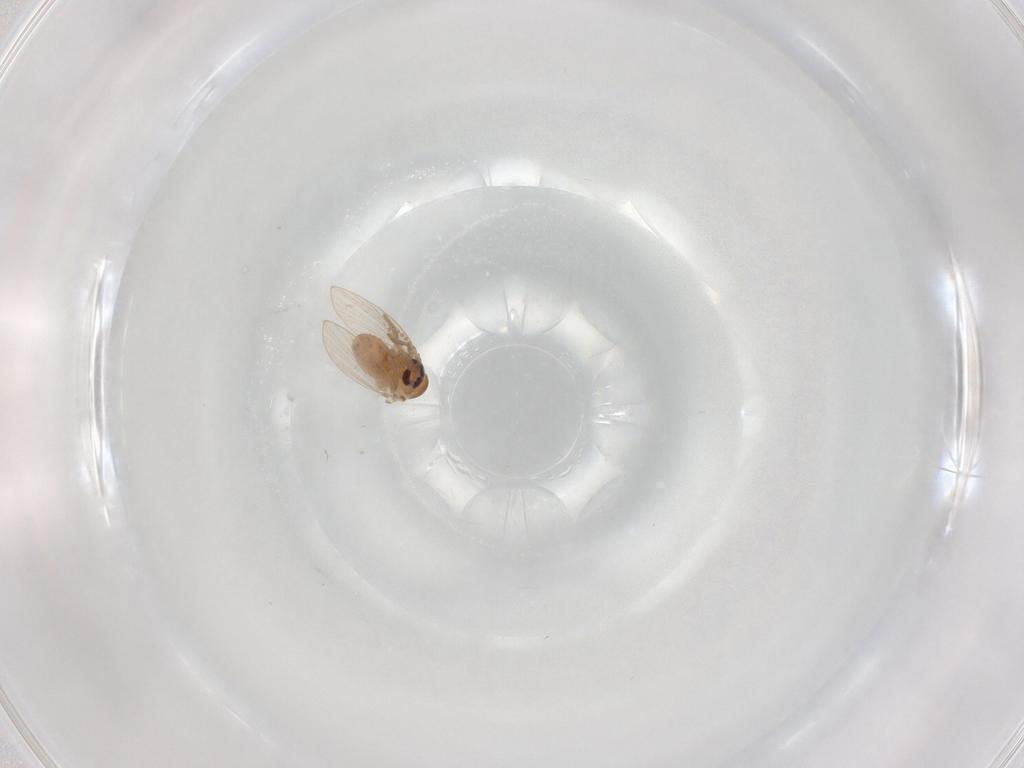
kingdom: Animalia
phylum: Arthropoda
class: Insecta
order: Diptera
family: Psychodidae
